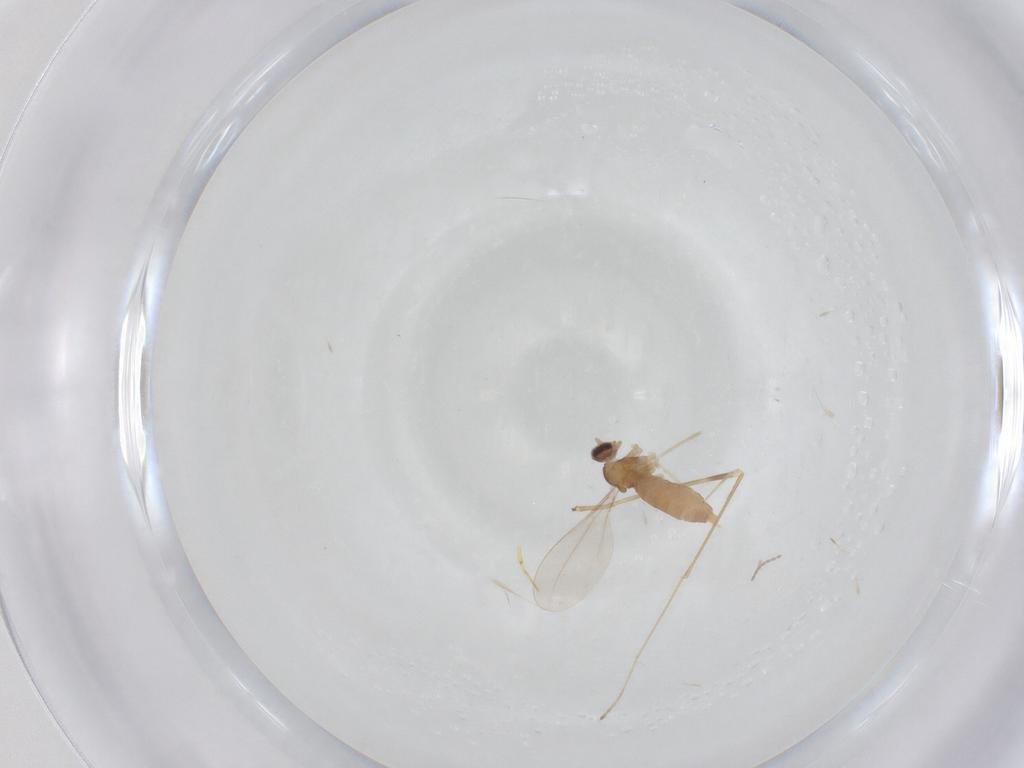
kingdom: Animalia
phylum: Arthropoda
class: Insecta
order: Diptera
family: Limoniidae
